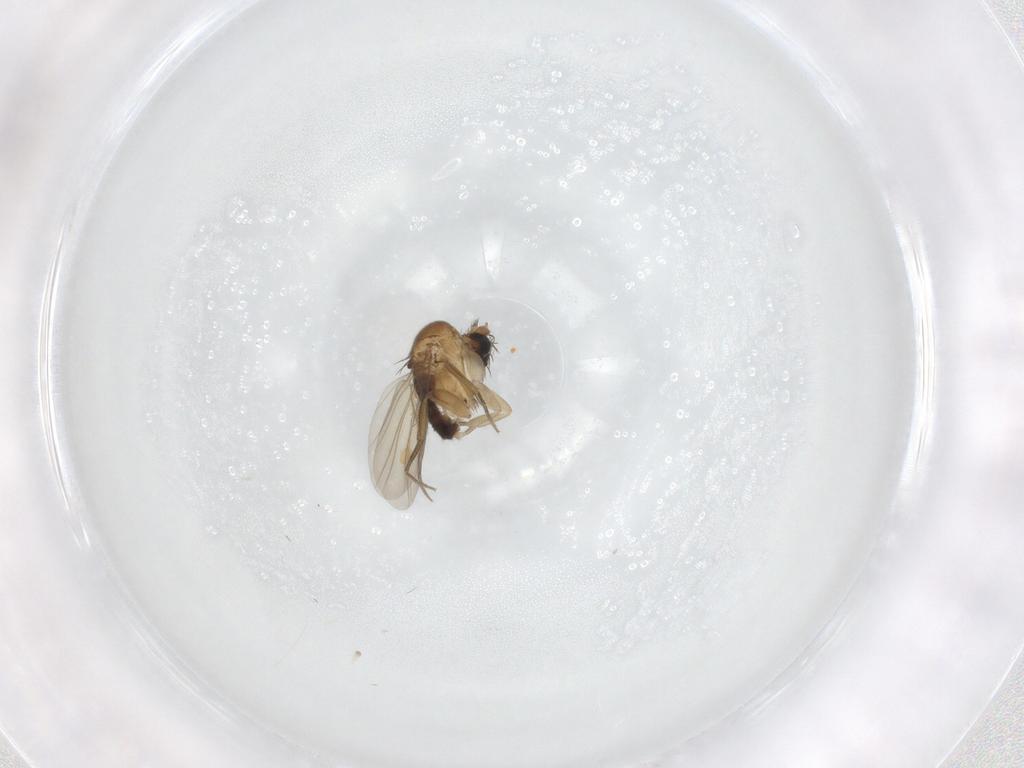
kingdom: Animalia
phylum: Arthropoda
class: Insecta
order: Diptera
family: Phoridae
